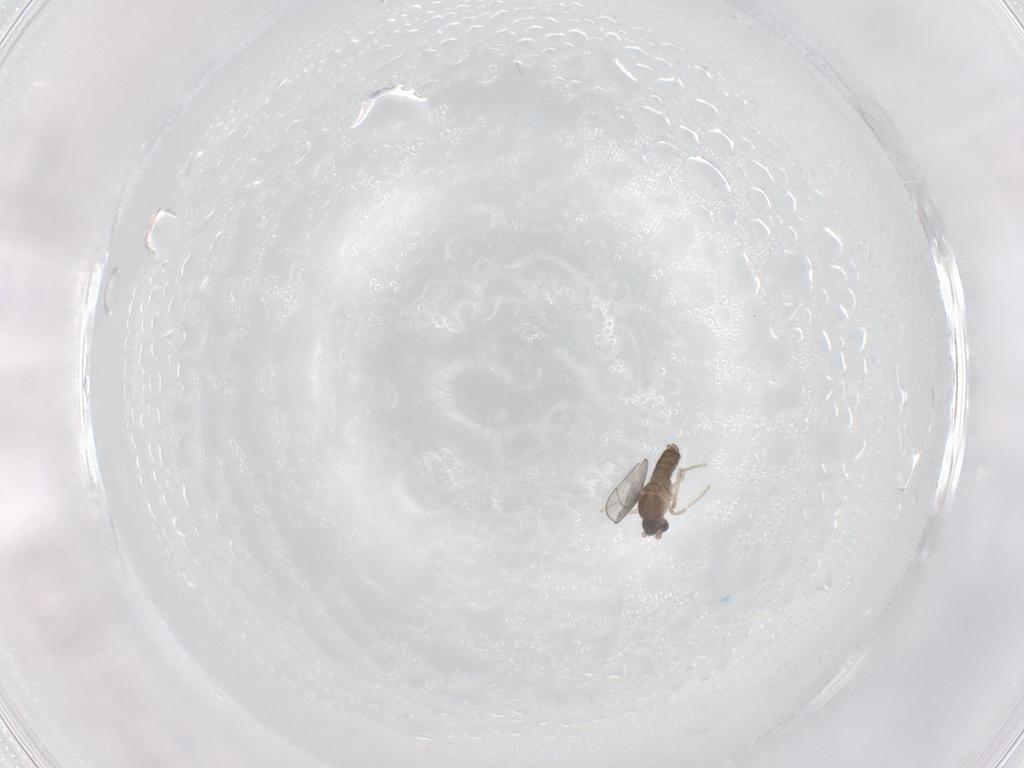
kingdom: Animalia
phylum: Arthropoda
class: Insecta
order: Diptera
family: Cecidomyiidae
